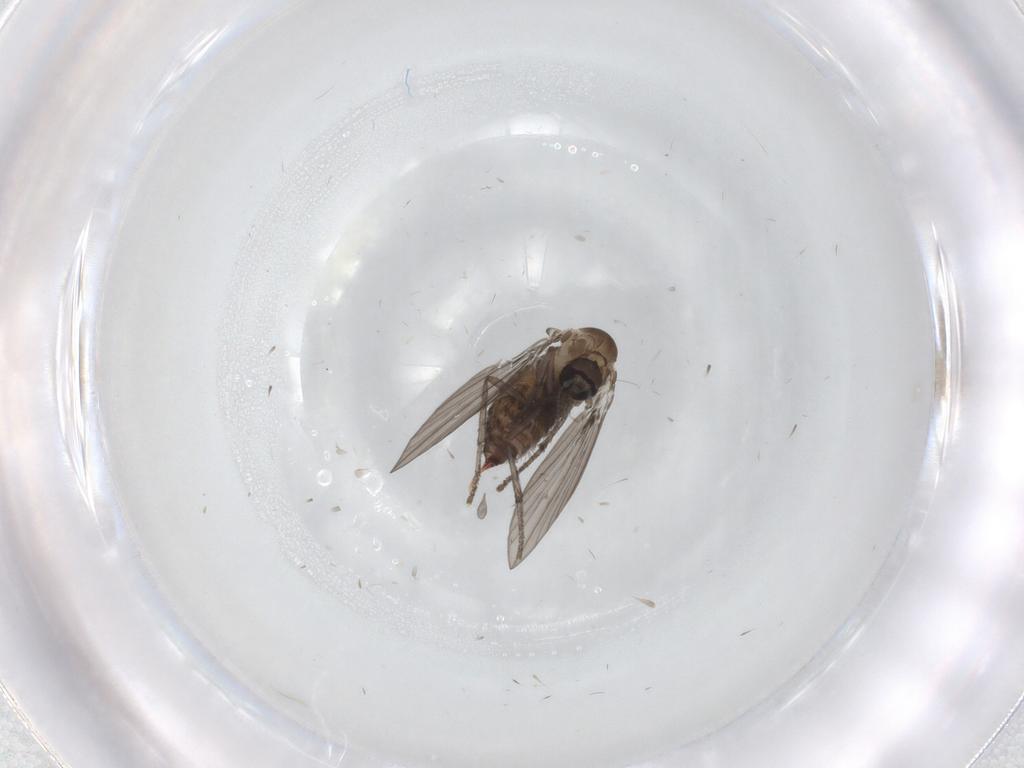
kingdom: Animalia
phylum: Arthropoda
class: Insecta
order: Diptera
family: Psychodidae
